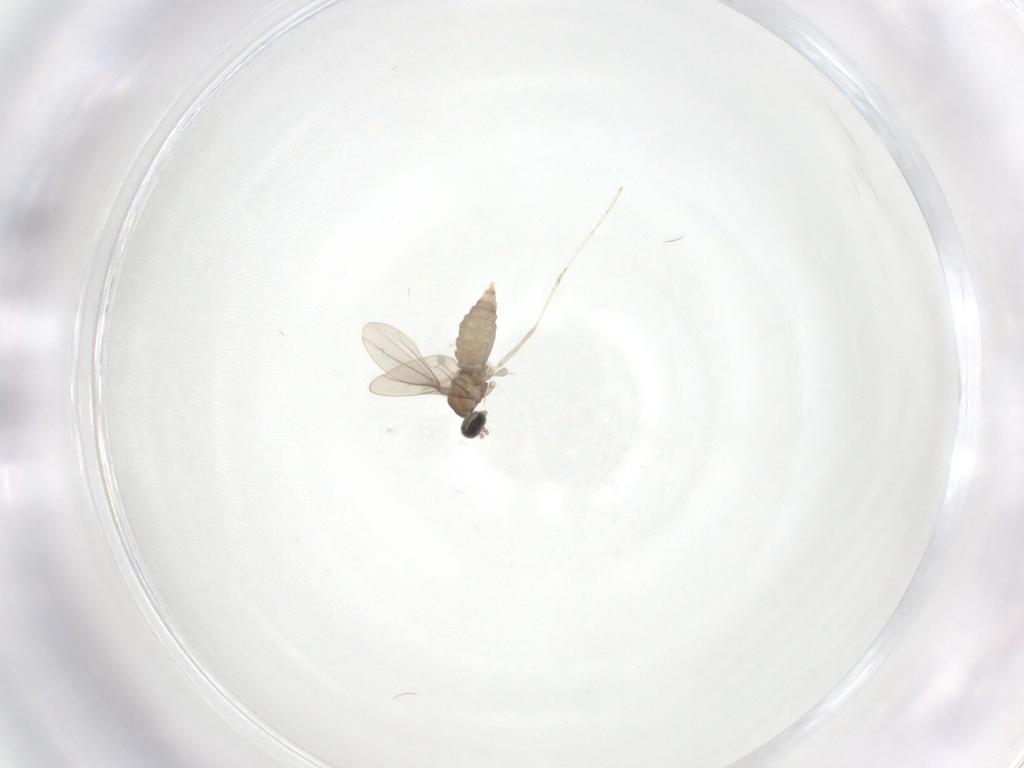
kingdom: Animalia
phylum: Arthropoda
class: Insecta
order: Diptera
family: Cecidomyiidae
